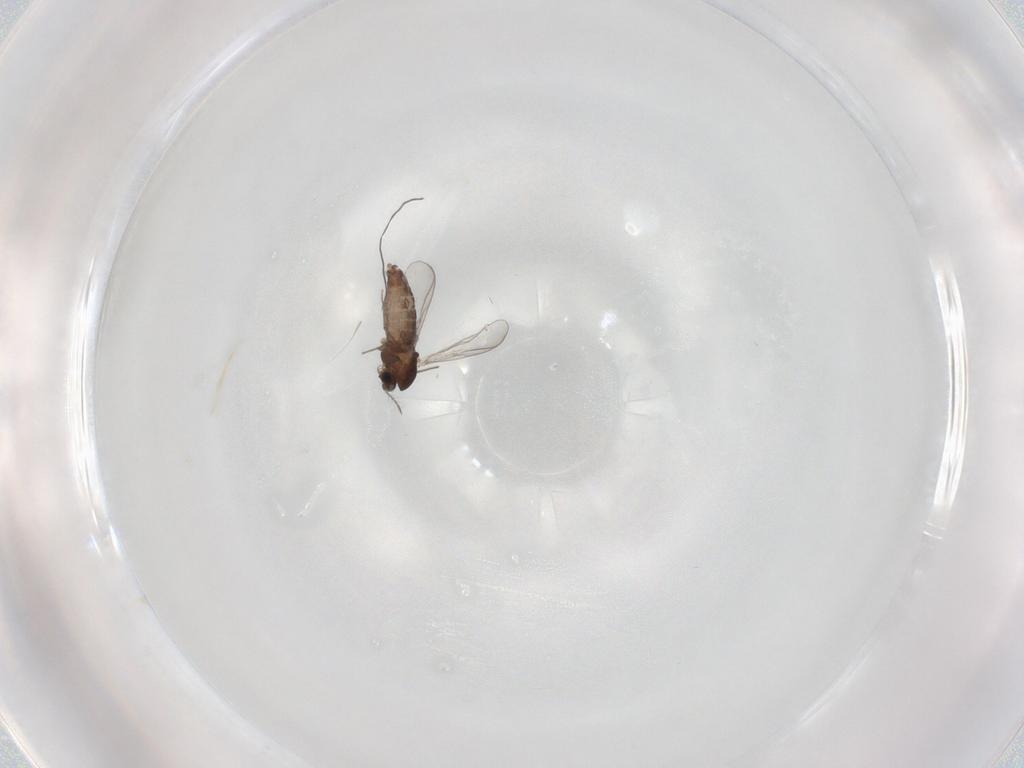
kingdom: Animalia
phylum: Arthropoda
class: Insecta
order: Diptera
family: Chironomidae
